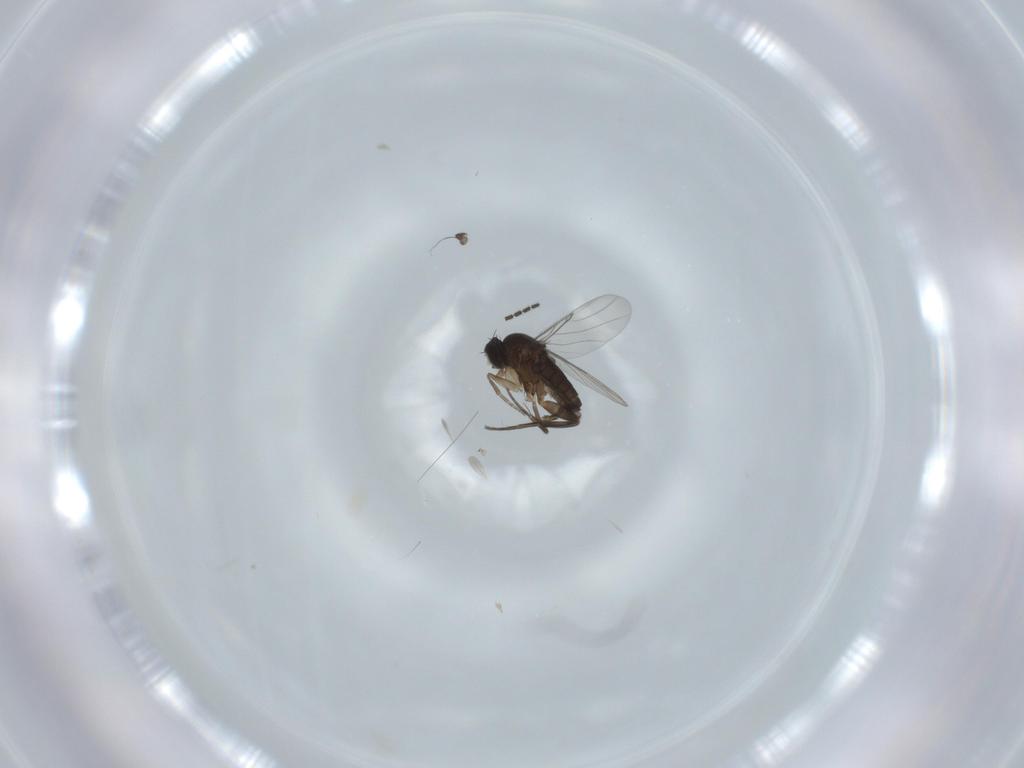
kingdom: Animalia
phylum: Arthropoda
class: Insecta
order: Diptera
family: Sciaridae
